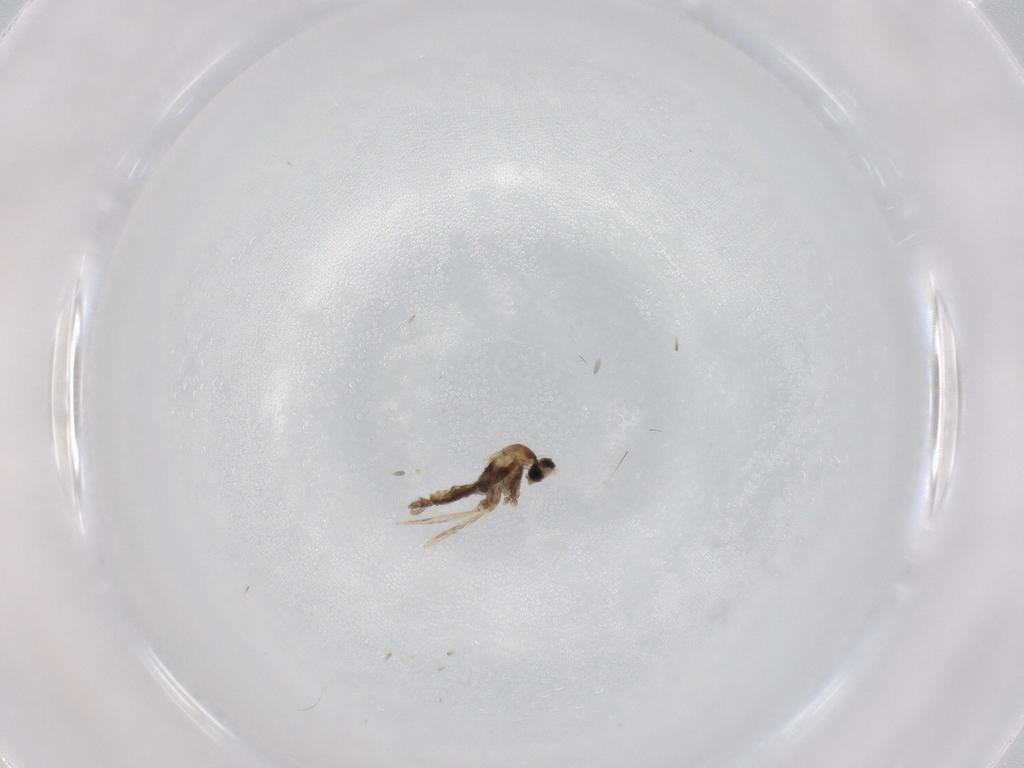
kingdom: Animalia
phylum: Arthropoda
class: Insecta
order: Diptera
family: Cecidomyiidae
